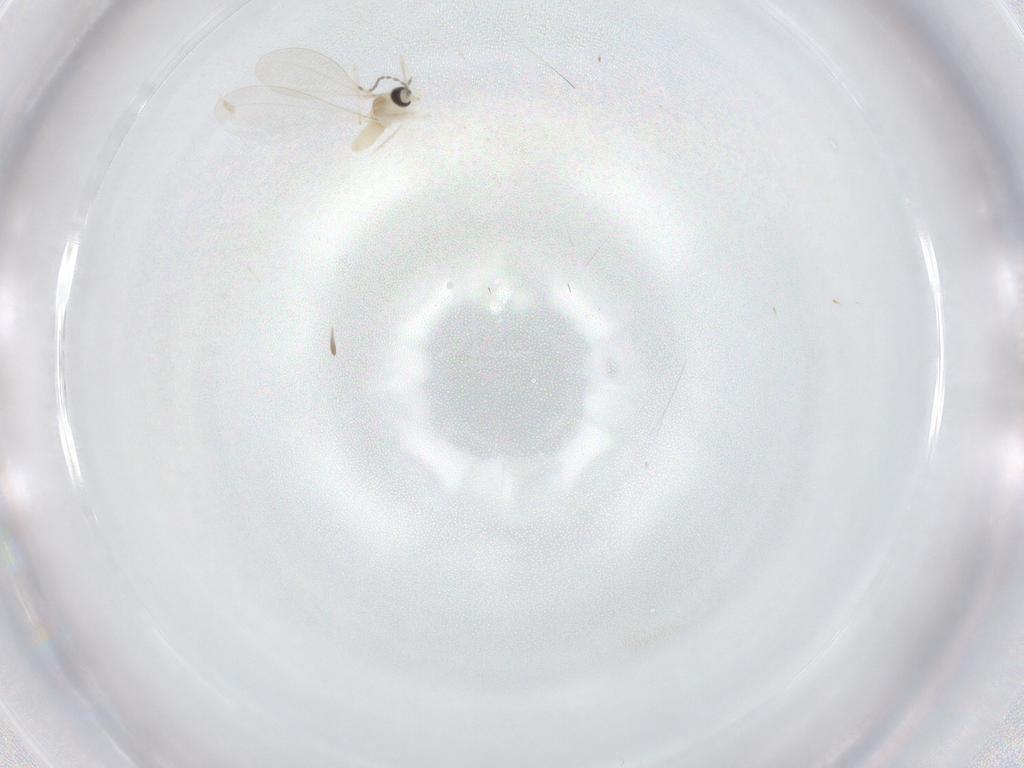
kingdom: Animalia
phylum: Arthropoda
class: Insecta
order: Diptera
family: Cecidomyiidae
